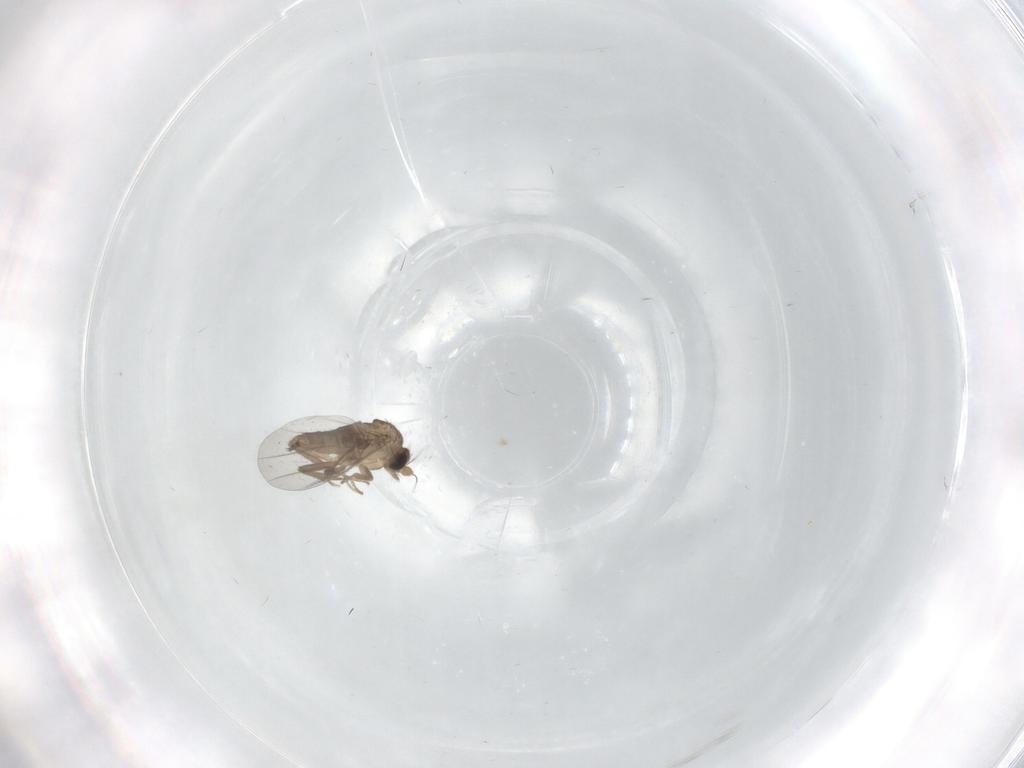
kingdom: Animalia
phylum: Arthropoda
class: Insecta
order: Diptera
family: Cecidomyiidae
